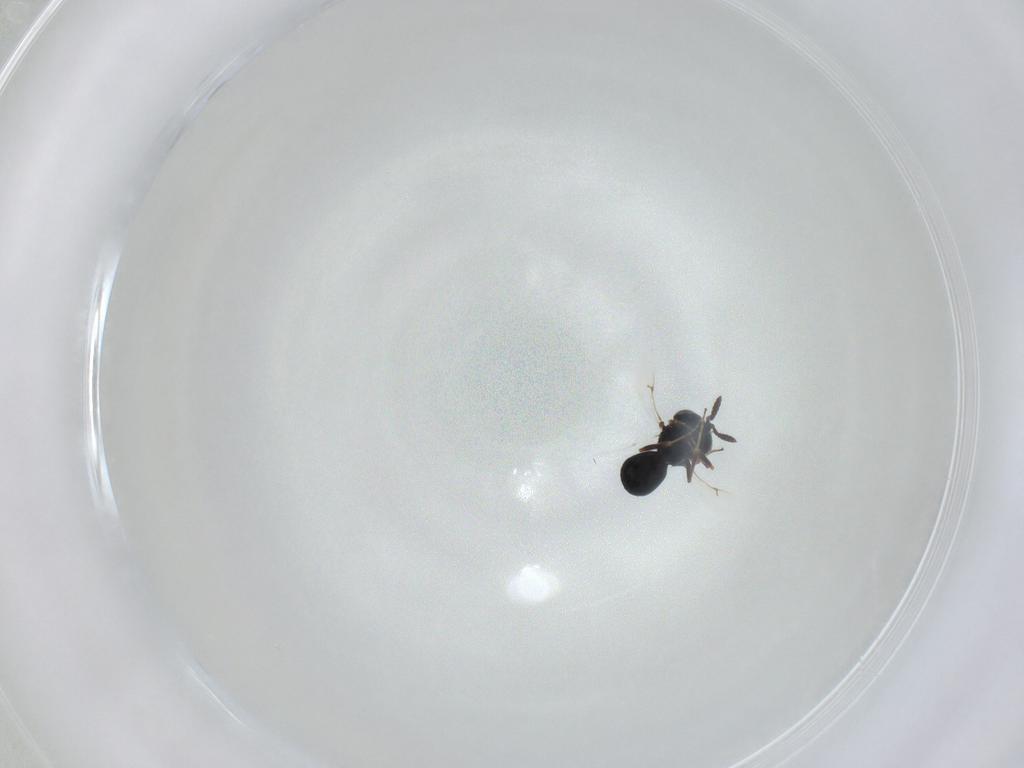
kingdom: Animalia
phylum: Arthropoda
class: Insecta
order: Hymenoptera
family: Scelionidae
